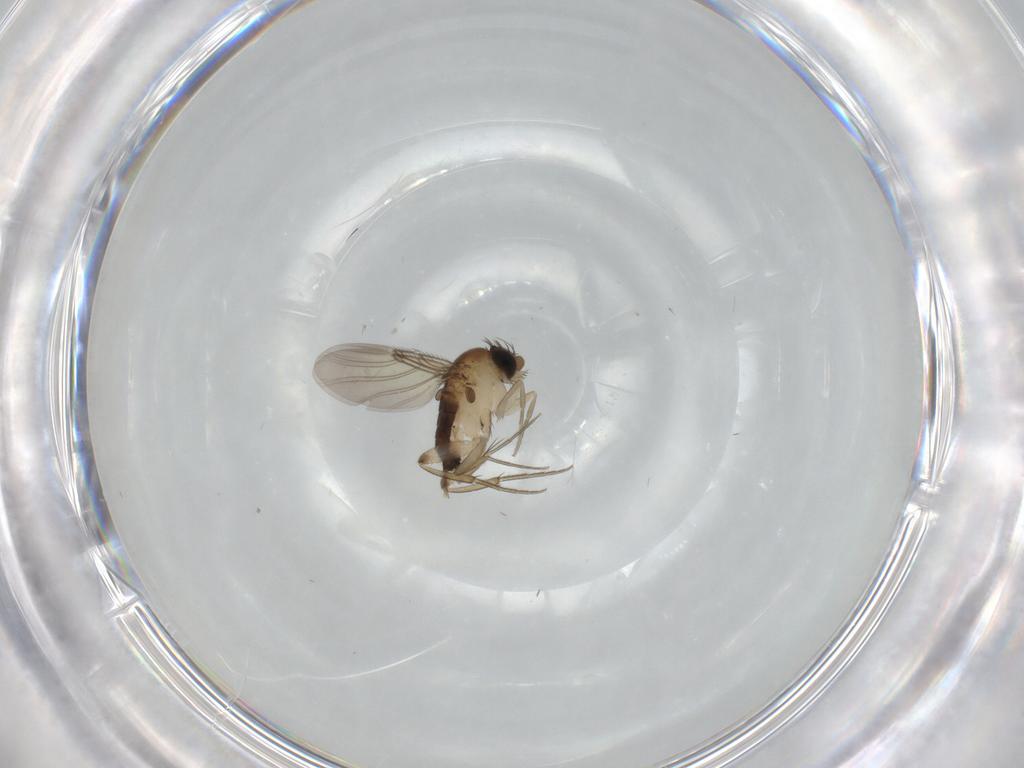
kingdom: Animalia
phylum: Arthropoda
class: Insecta
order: Diptera
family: Phoridae
